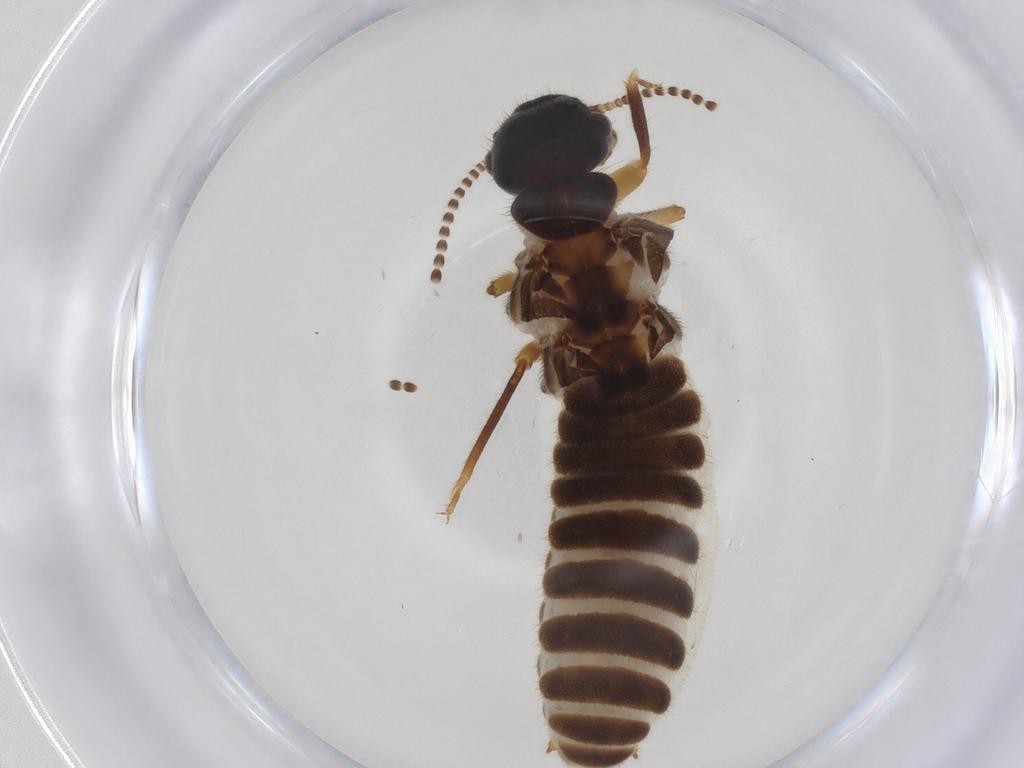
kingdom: Animalia
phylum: Arthropoda
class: Insecta
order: Blattodea
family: Termitidae
